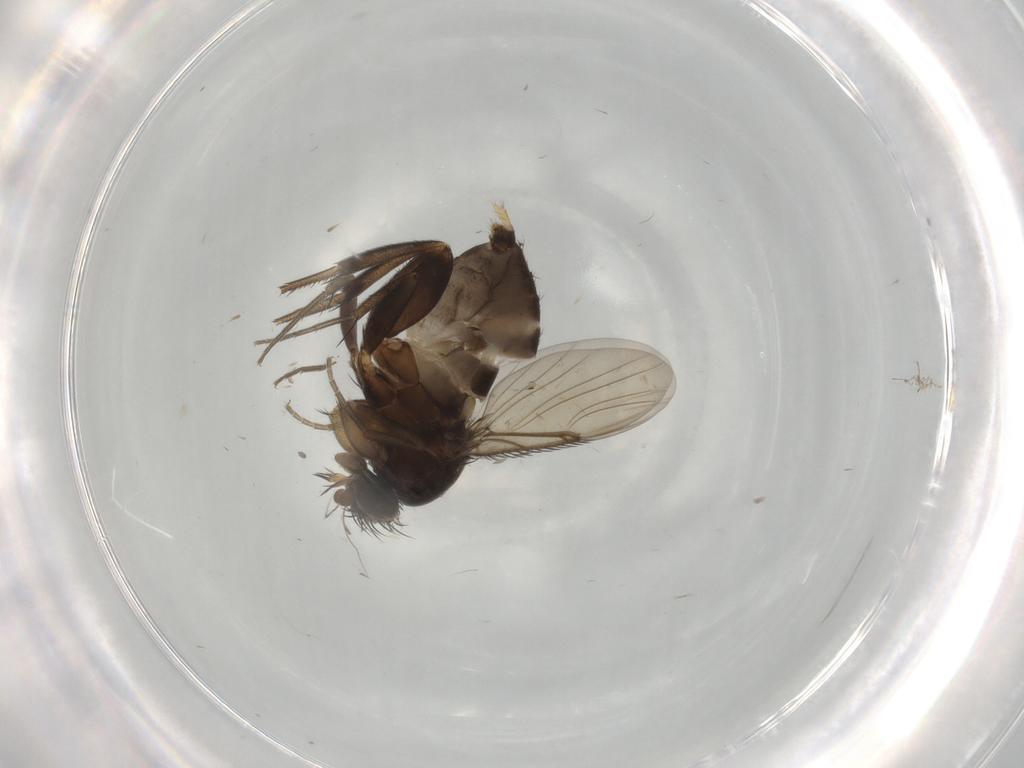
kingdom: Animalia
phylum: Arthropoda
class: Insecta
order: Diptera
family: Phoridae
